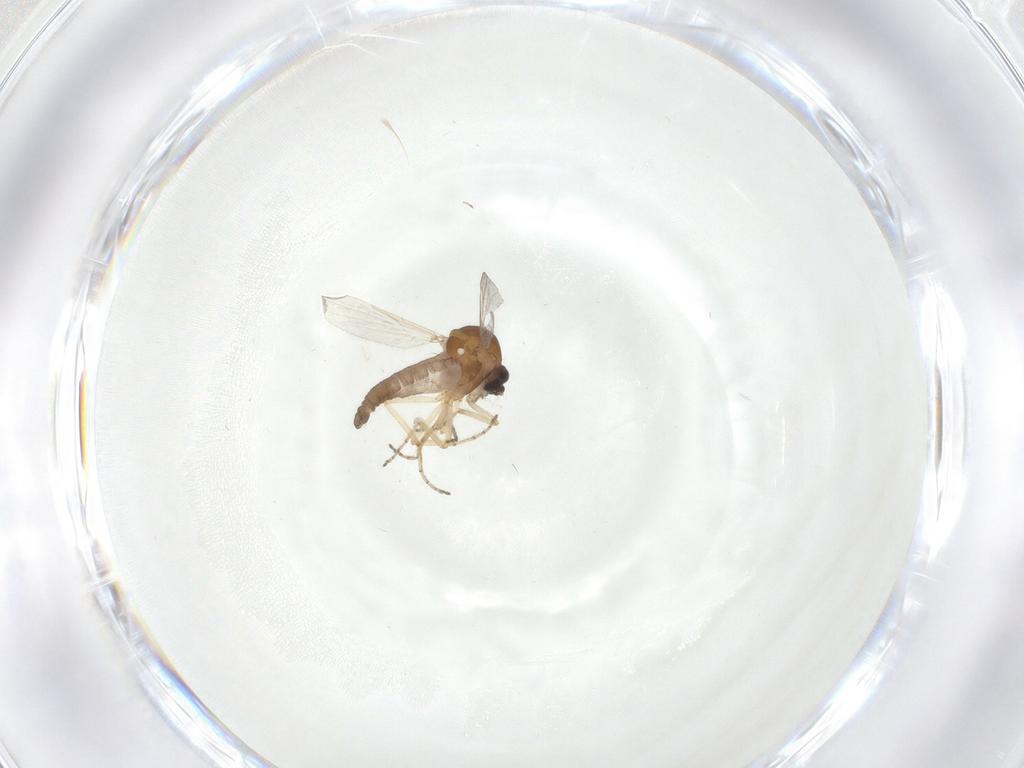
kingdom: Animalia
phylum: Arthropoda
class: Insecta
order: Diptera
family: Ceratopogonidae
